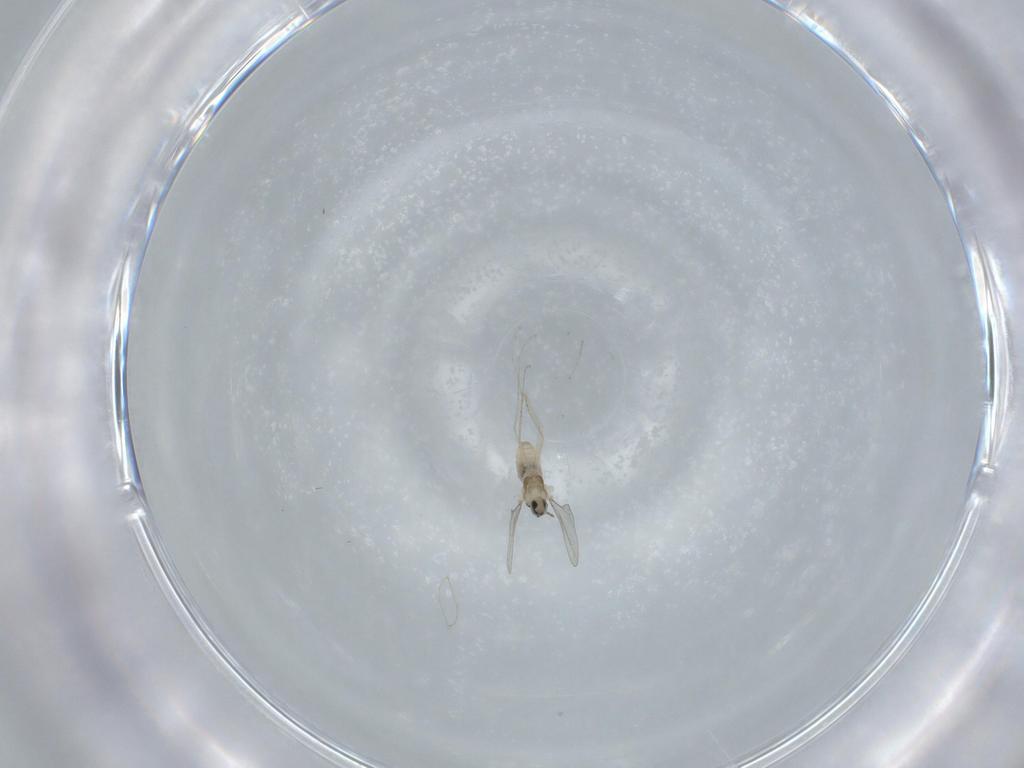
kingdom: Animalia
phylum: Arthropoda
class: Insecta
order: Diptera
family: Cecidomyiidae
